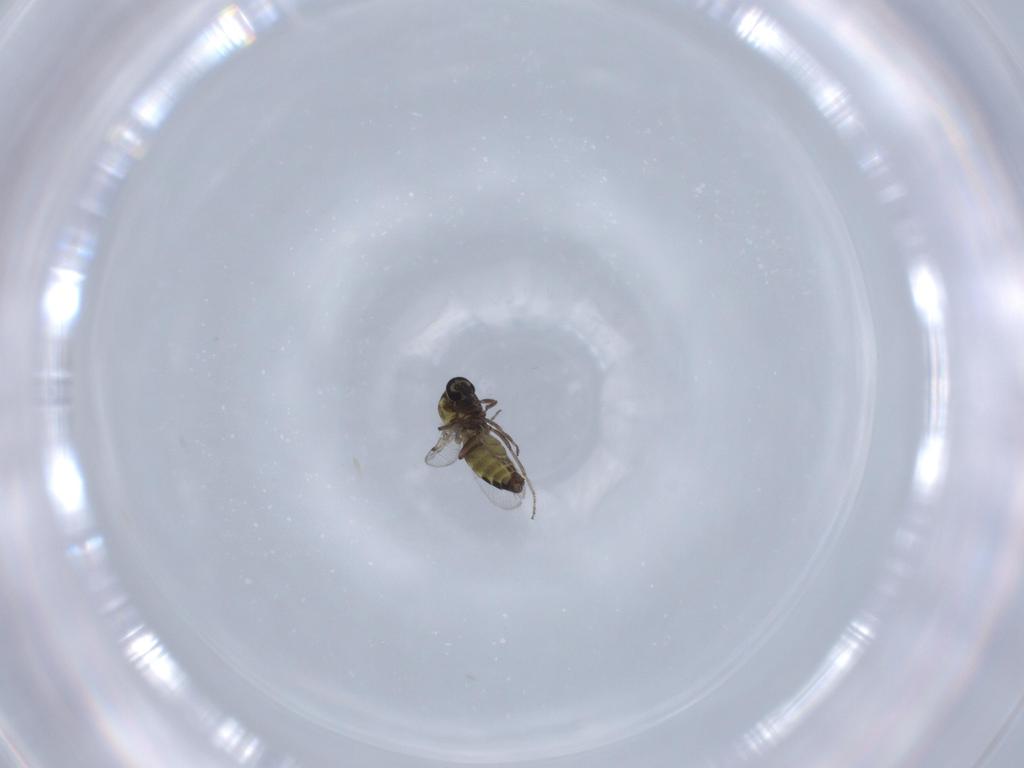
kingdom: Animalia
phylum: Arthropoda
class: Insecta
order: Diptera
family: Ceratopogonidae
